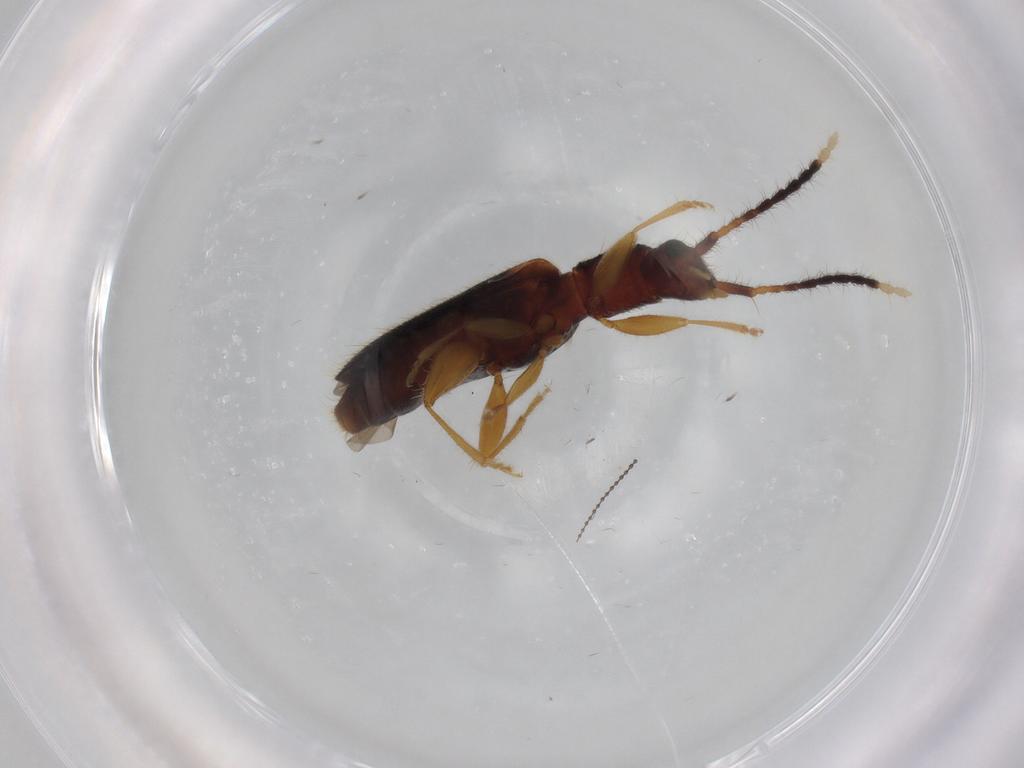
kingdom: Animalia
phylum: Arthropoda
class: Insecta
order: Coleoptera
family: Silvanidae
